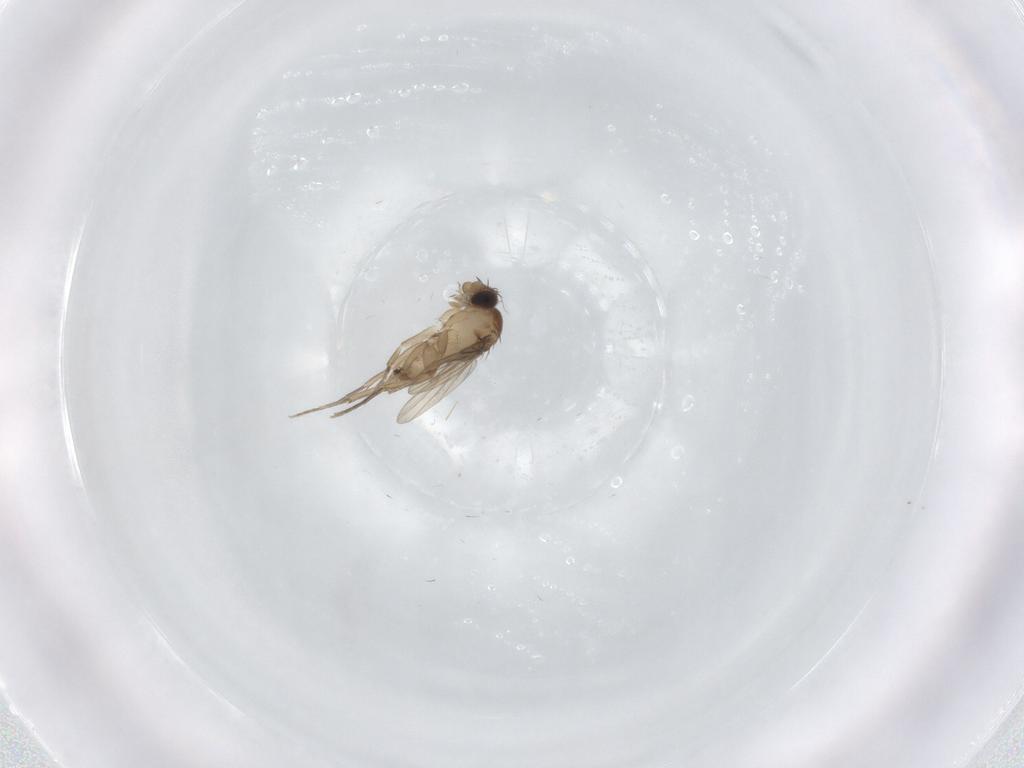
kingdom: Animalia
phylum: Arthropoda
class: Insecta
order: Diptera
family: Phoridae
